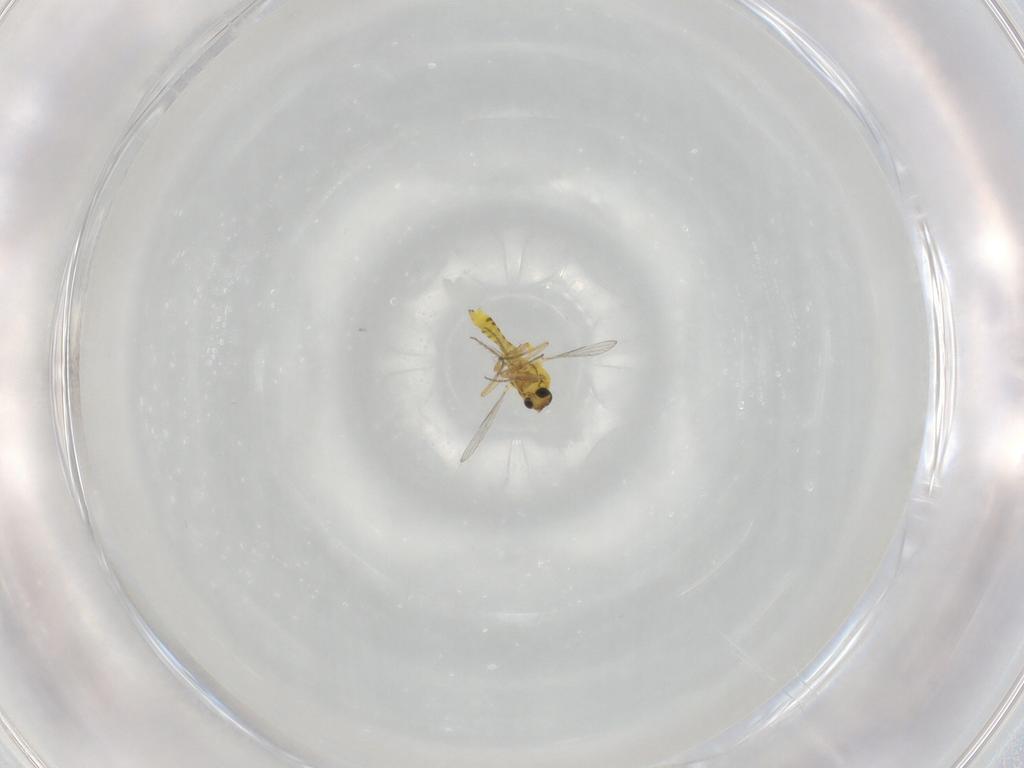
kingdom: Animalia
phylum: Arthropoda
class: Insecta
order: Diptera
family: Ceratopogonidae
